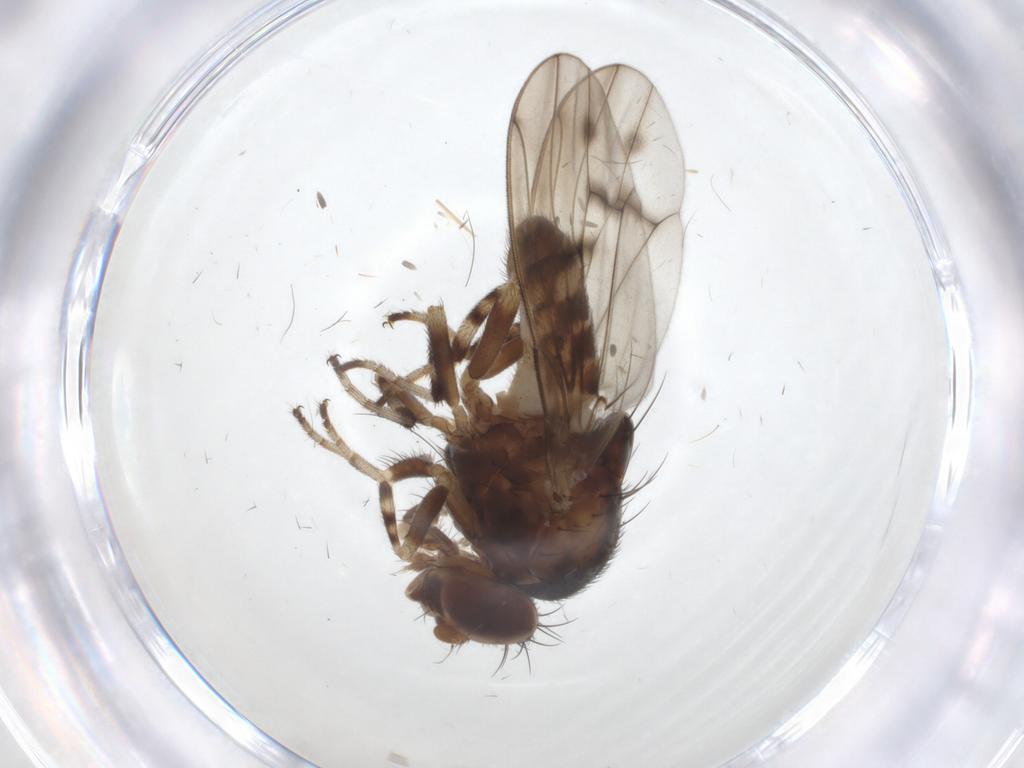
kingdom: Animalia
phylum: Arthropoda
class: Insecta
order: Diptera
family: Drosophilidae
